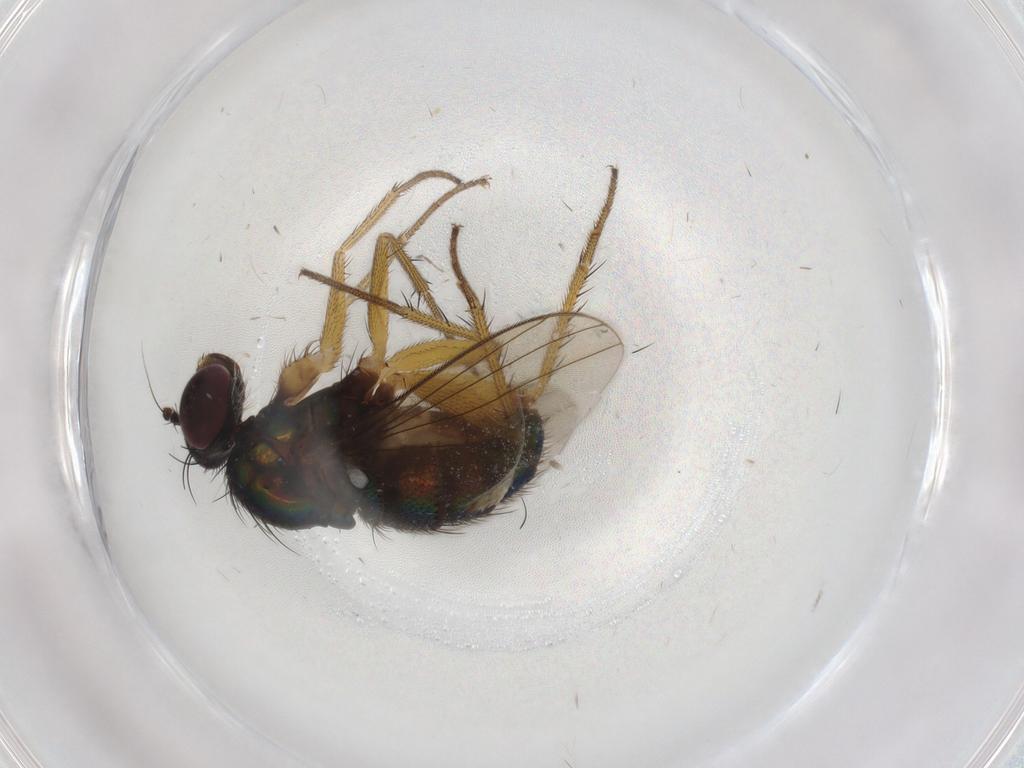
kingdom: Animalia
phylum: Arthropoda
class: Insecta
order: Diptera
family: Dolichopodidae
